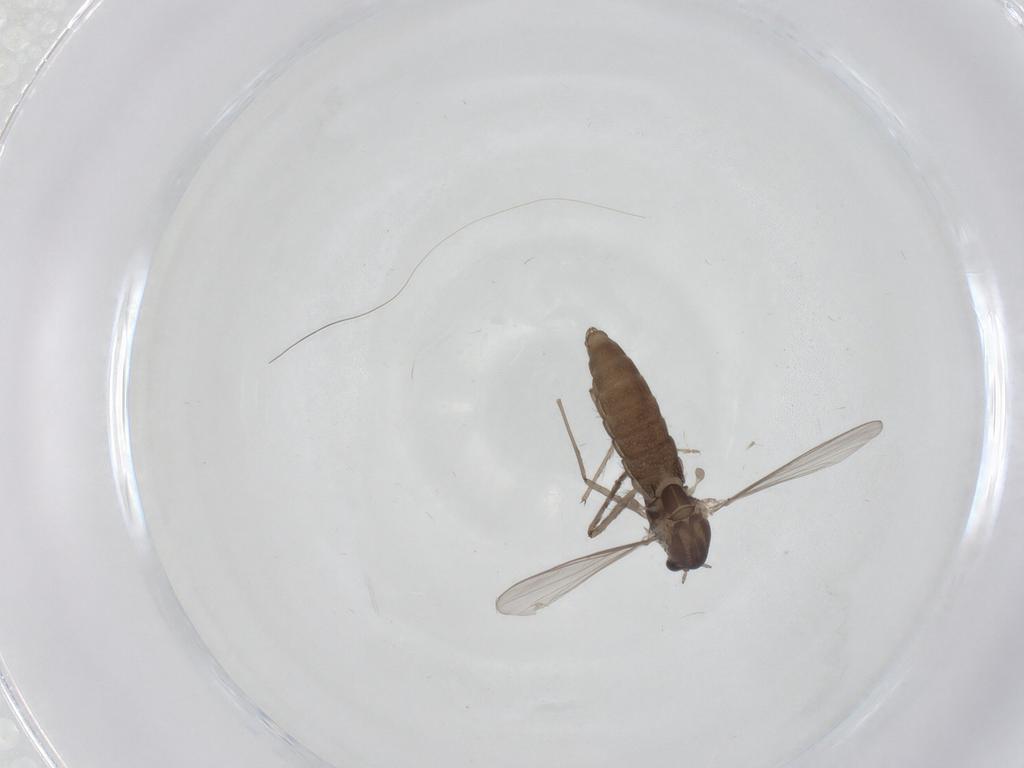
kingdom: Animalia
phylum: Arthropoda
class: Insecta
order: Diptera
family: Chironomidae
